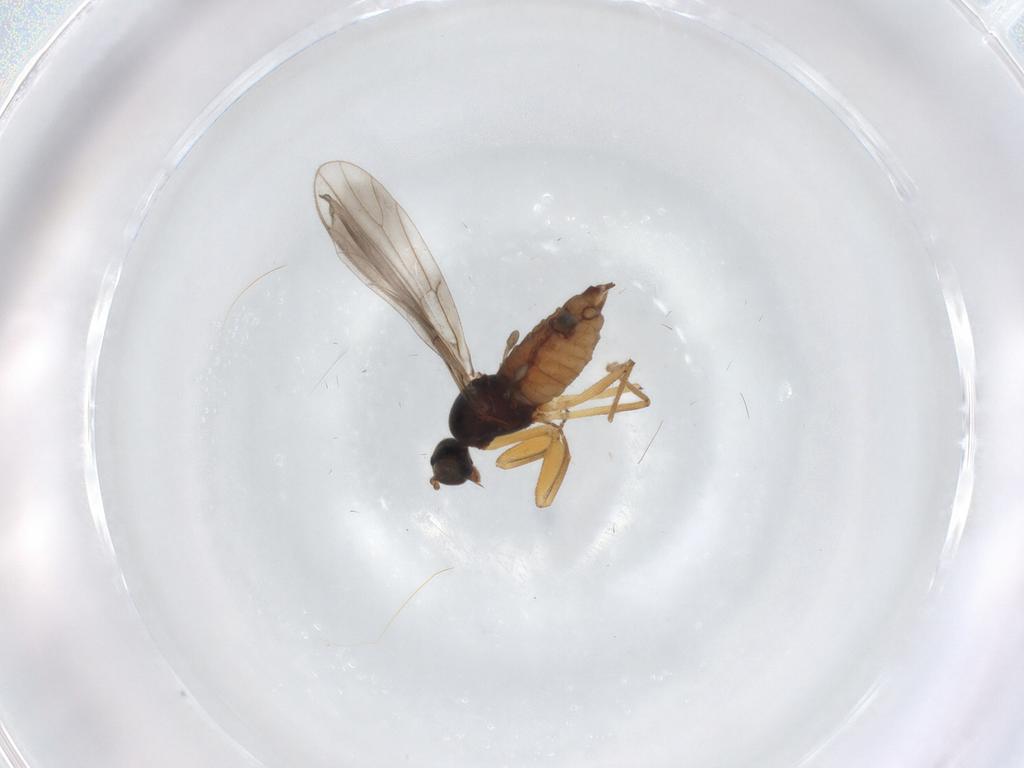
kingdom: Animalia
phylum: Arthropoda
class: Insecta
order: Diptera
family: Empididae
